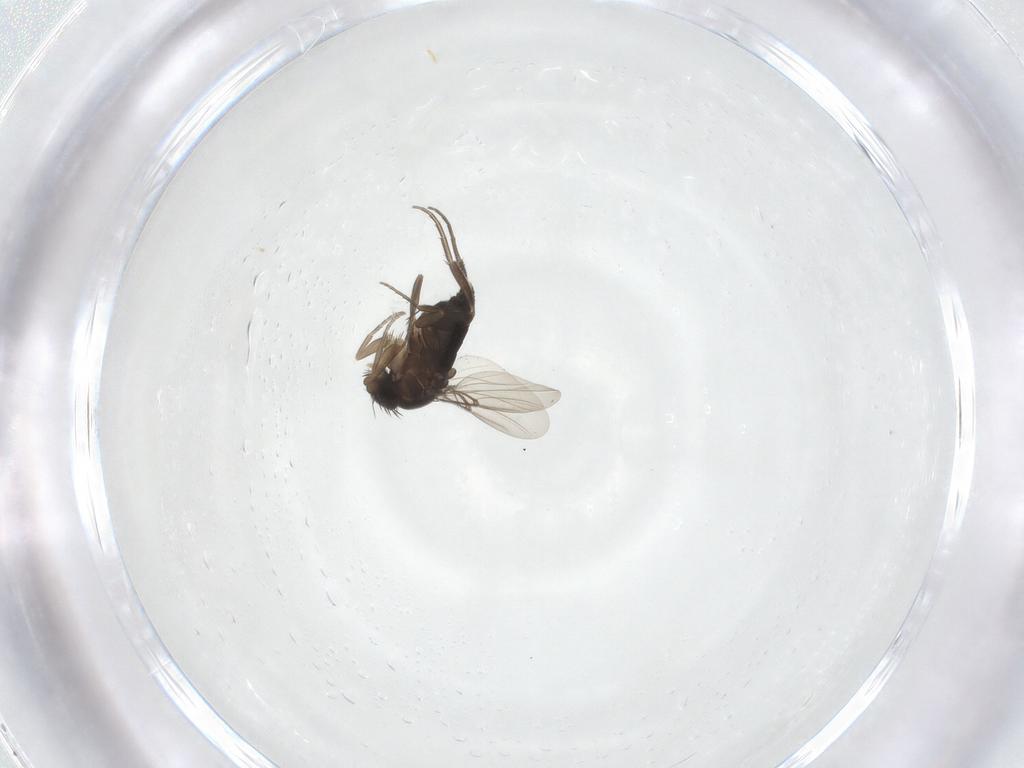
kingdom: Animalia
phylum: Arthropoda
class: Insecta
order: Diptera
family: Phoridae
